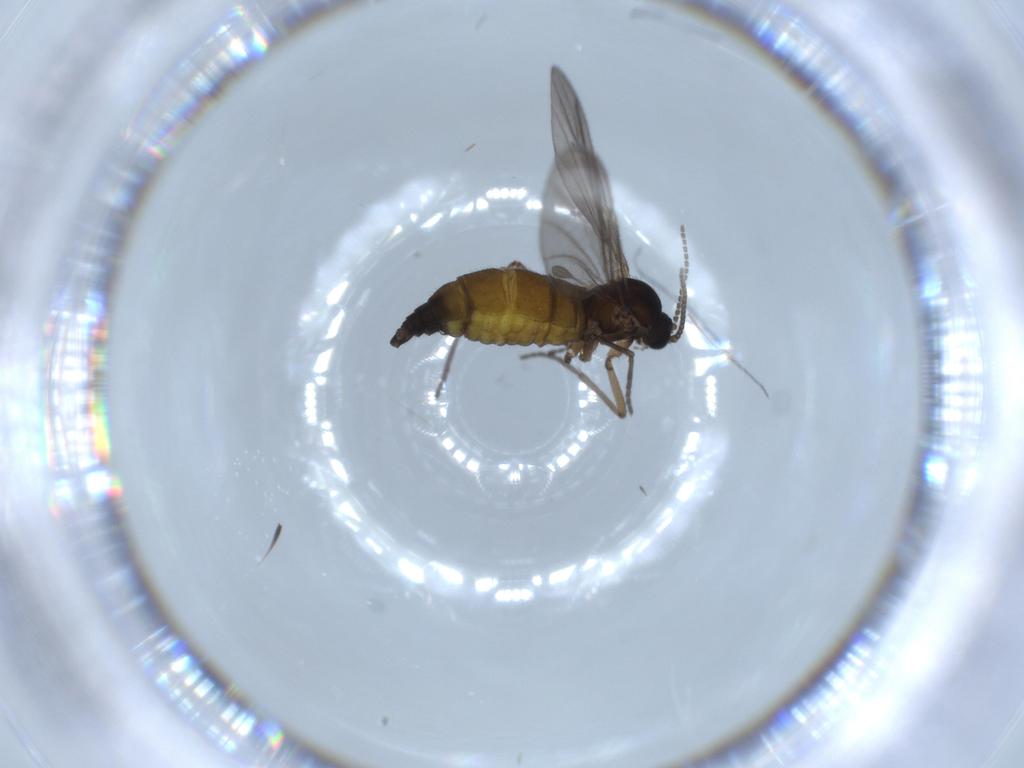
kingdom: Animalia
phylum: Arthropoda
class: Insecta
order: Diptera
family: Sciaridae
